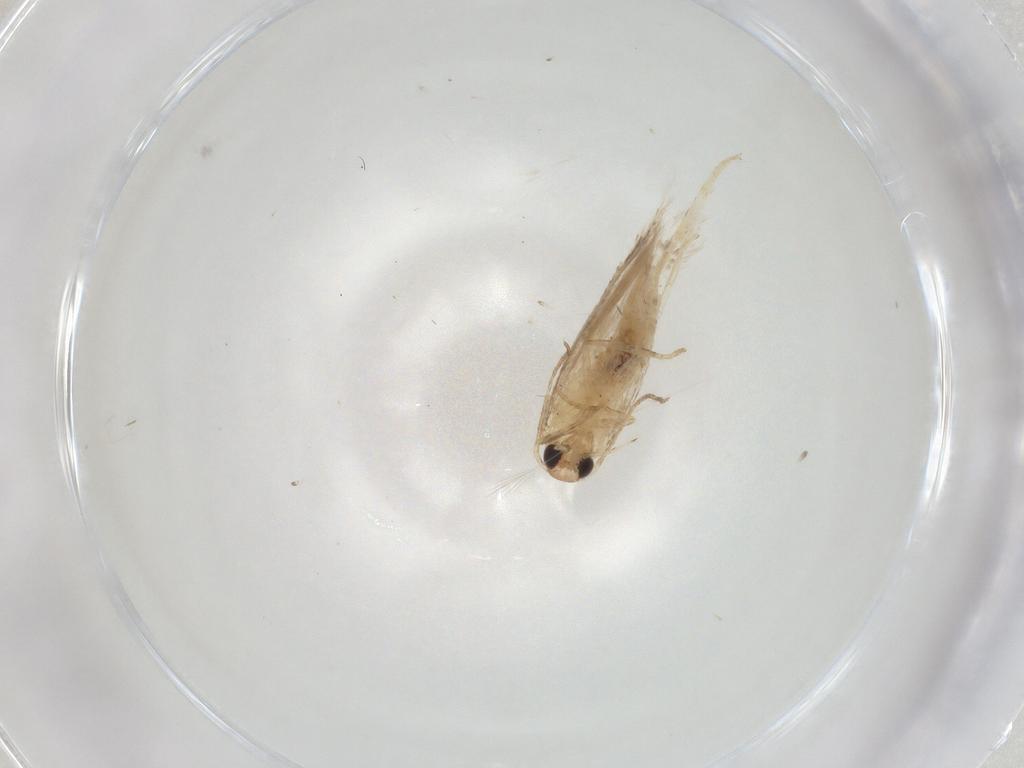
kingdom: Animalia
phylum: Arthropoda
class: Insecta
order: Lepidoptera
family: Gelechiidae
